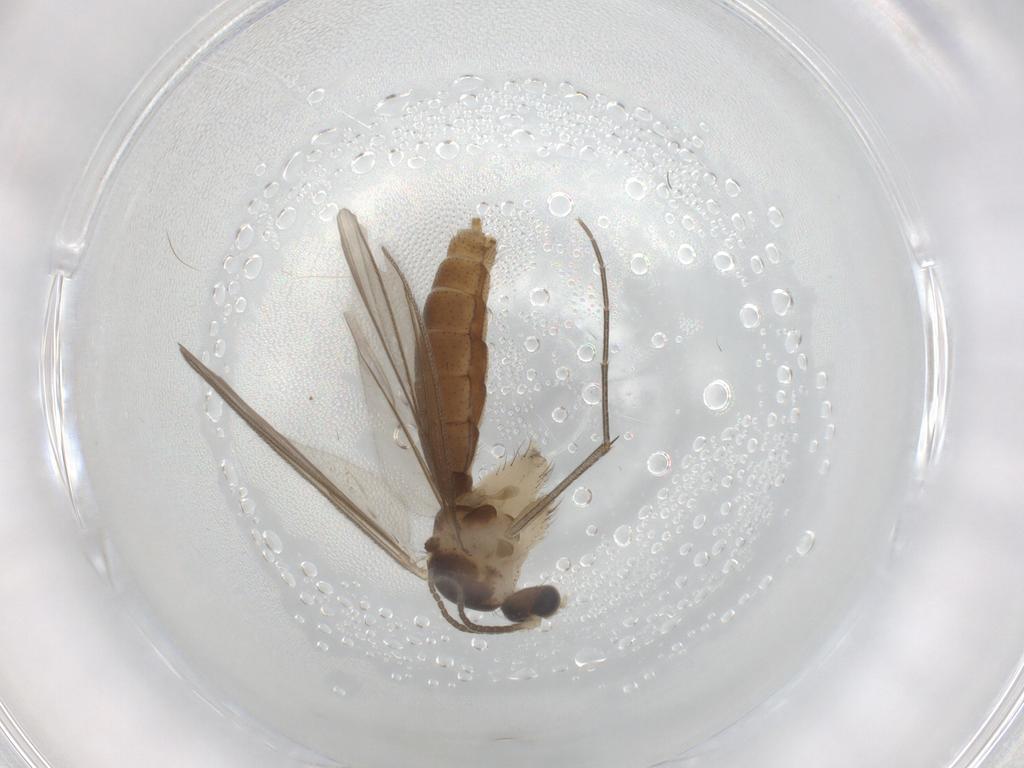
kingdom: Animalia
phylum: Arthropoda
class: Insecta
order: Diptera
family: Mycetophilidae
